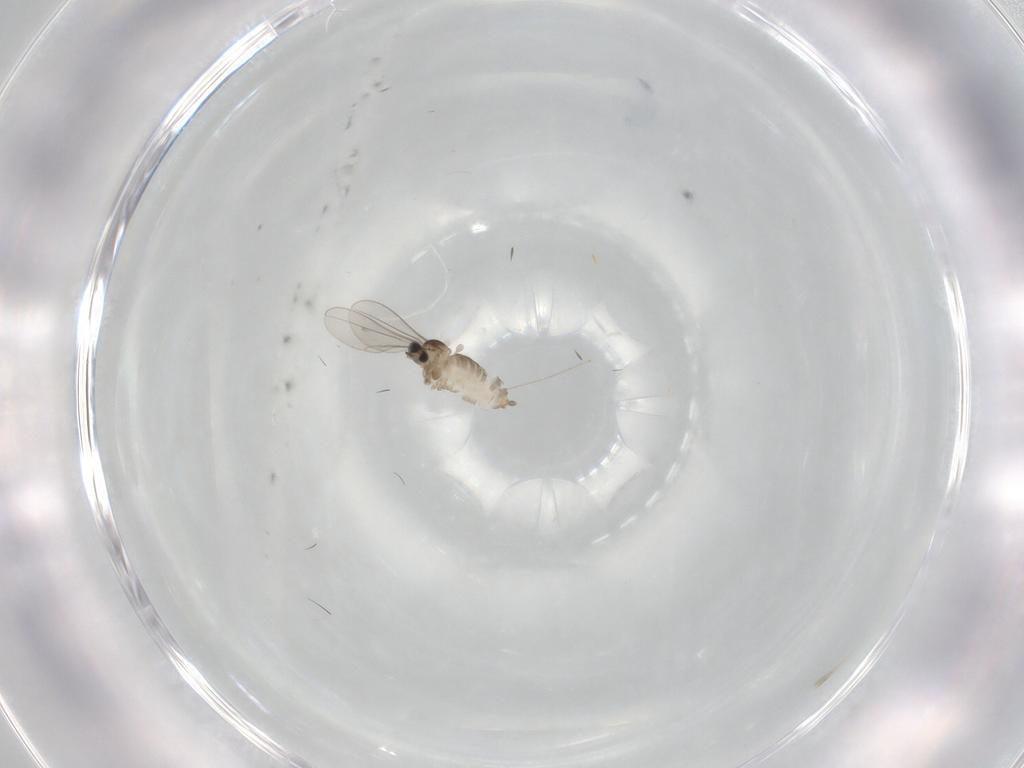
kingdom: Animalia
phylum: Arthropoda
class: Insecta
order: Diptera
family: Cecidomyiidae
